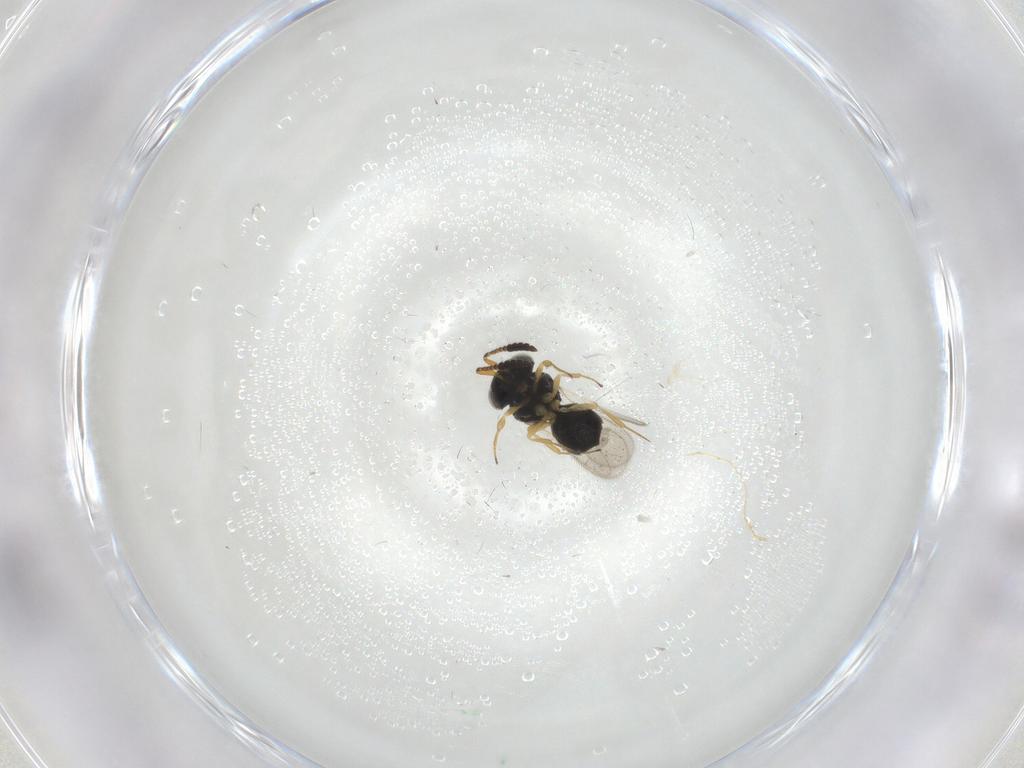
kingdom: Animalia
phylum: Arthropoda
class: Insecta
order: Hymenoptera
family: Scelionidae
